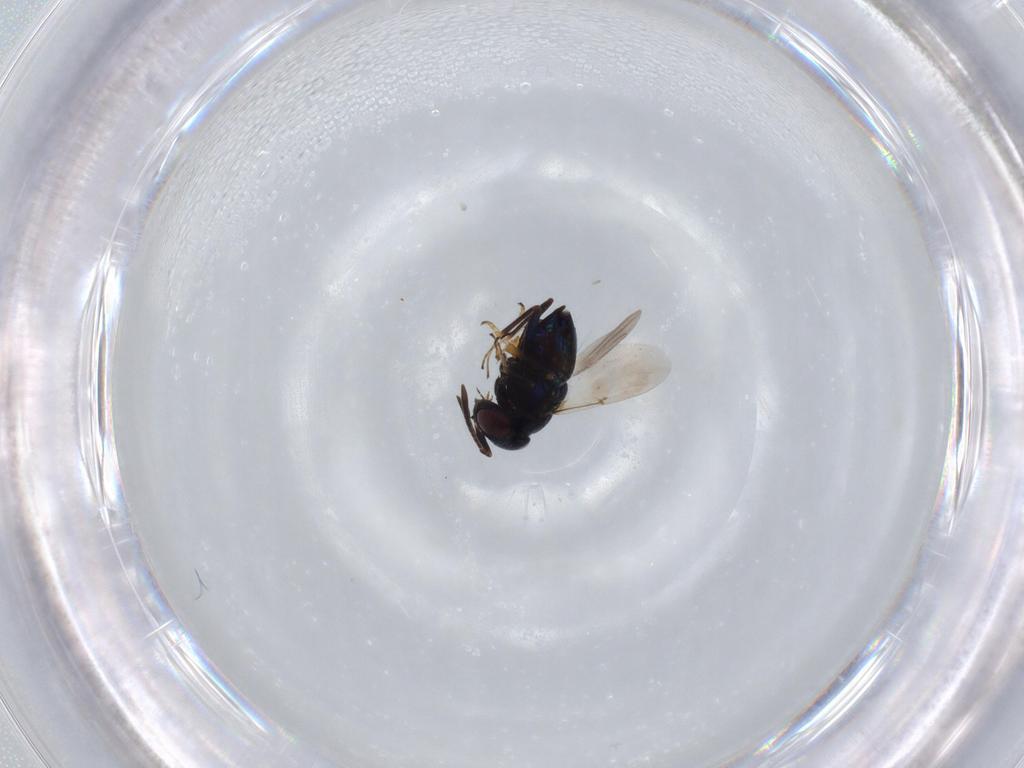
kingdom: Animalia
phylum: Arthropoda
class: Insecta
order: Hymenoptera
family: Encyrtidae
